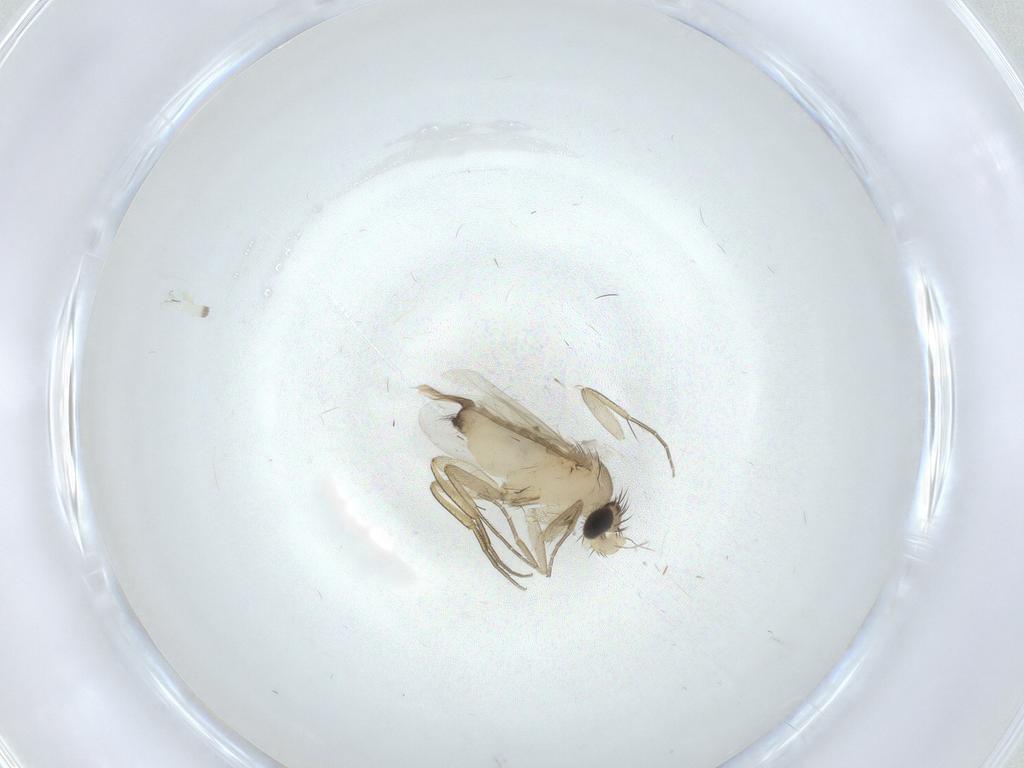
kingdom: Animalia
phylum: Arthropoda
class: Insecta
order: Diptera
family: Phoridae
